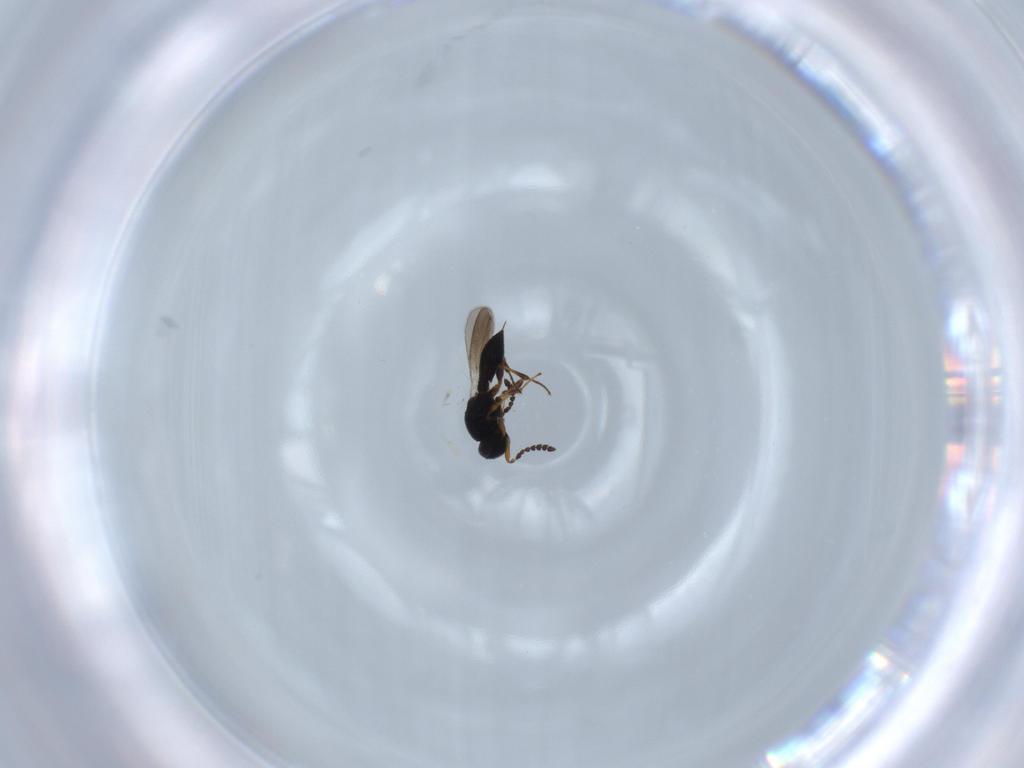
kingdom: Animalia
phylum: Arthropoda
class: Insecta
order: Hymenoptera
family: Platygastridae
